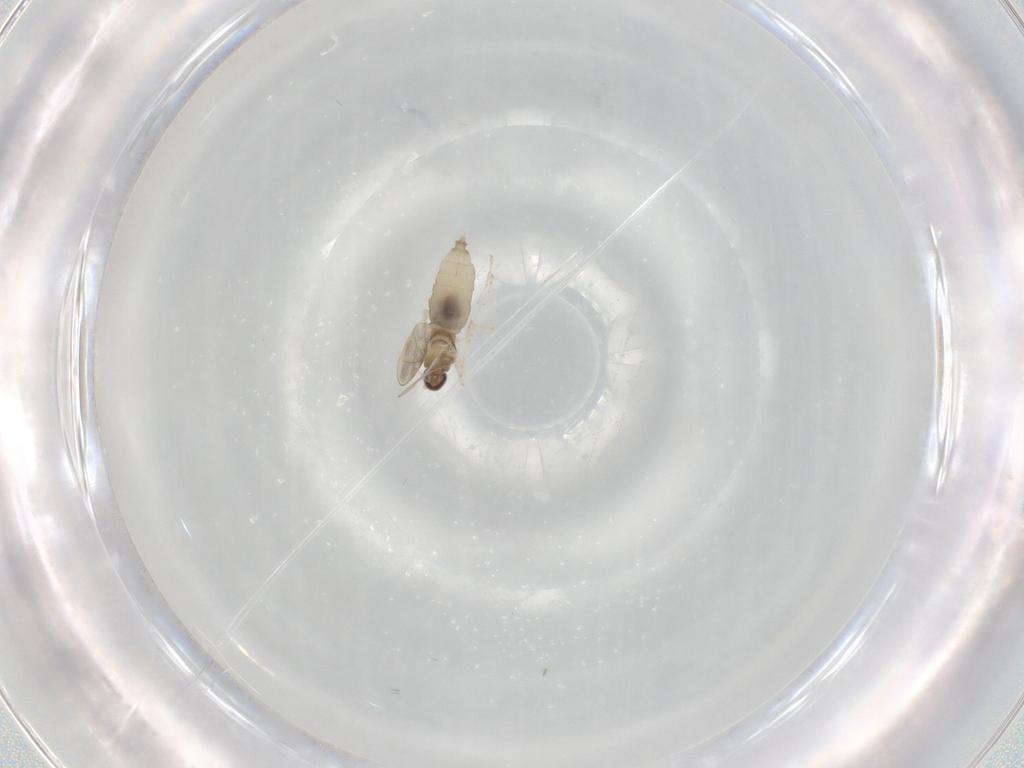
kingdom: Animalia
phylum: Arthropoda
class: Insecta
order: Diptera
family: Cecidomyiidae
